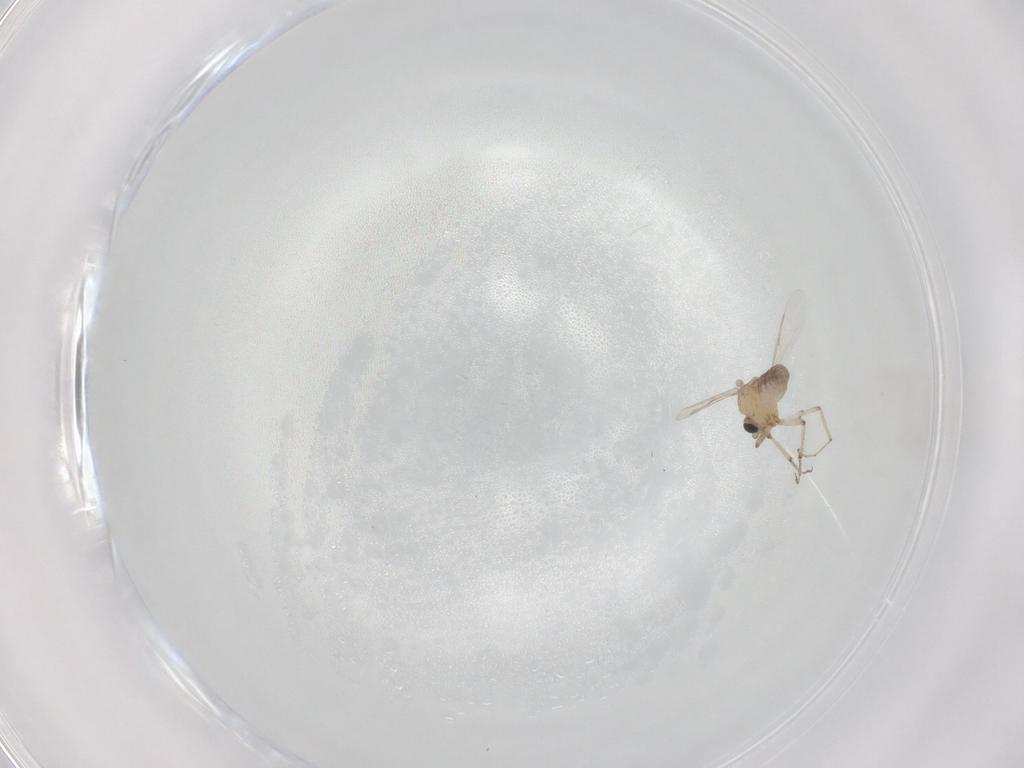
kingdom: Animalia
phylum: Arthropoda
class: Insecta
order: Diptera
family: Ceratopogonidae
